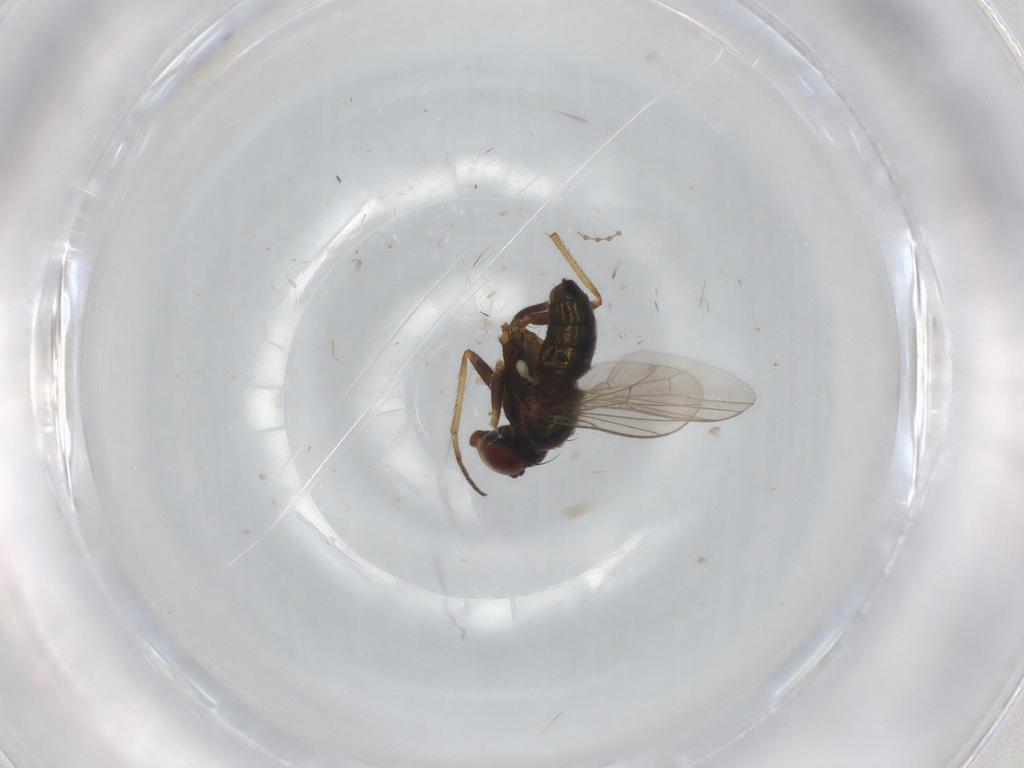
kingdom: Animalia
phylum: Arthropoda
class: Insecta
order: Diptera
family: Cecidomyiidae
